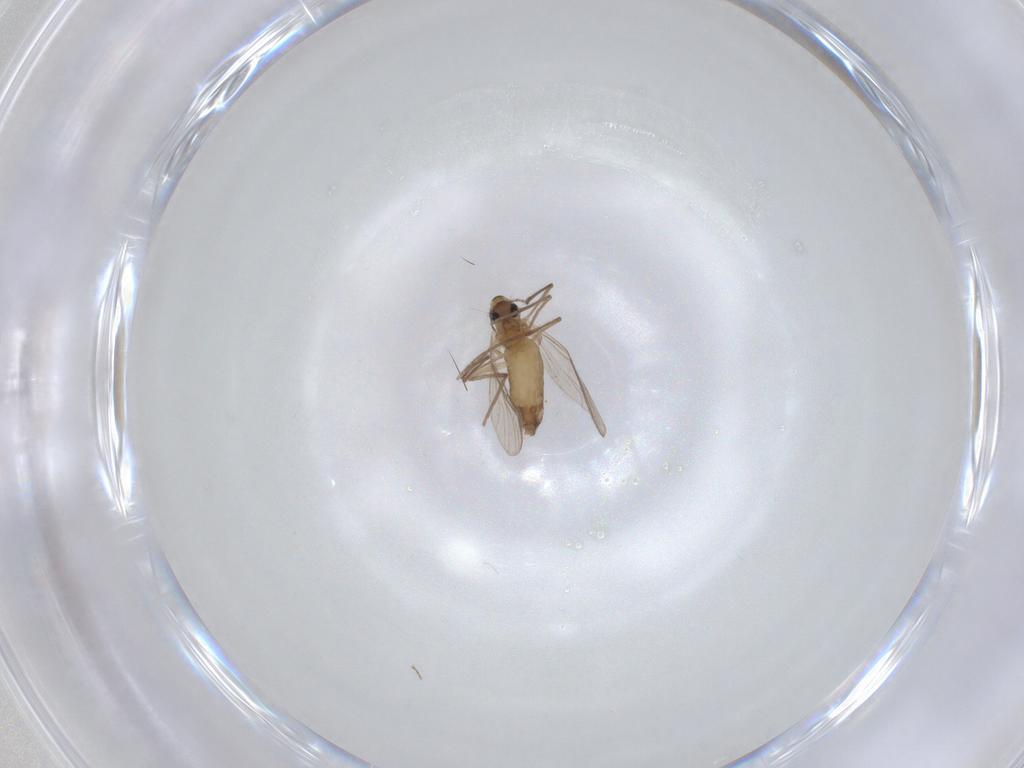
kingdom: Animalia
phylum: Arthropoda
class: Insecta
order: Diptera
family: Chironomidae
